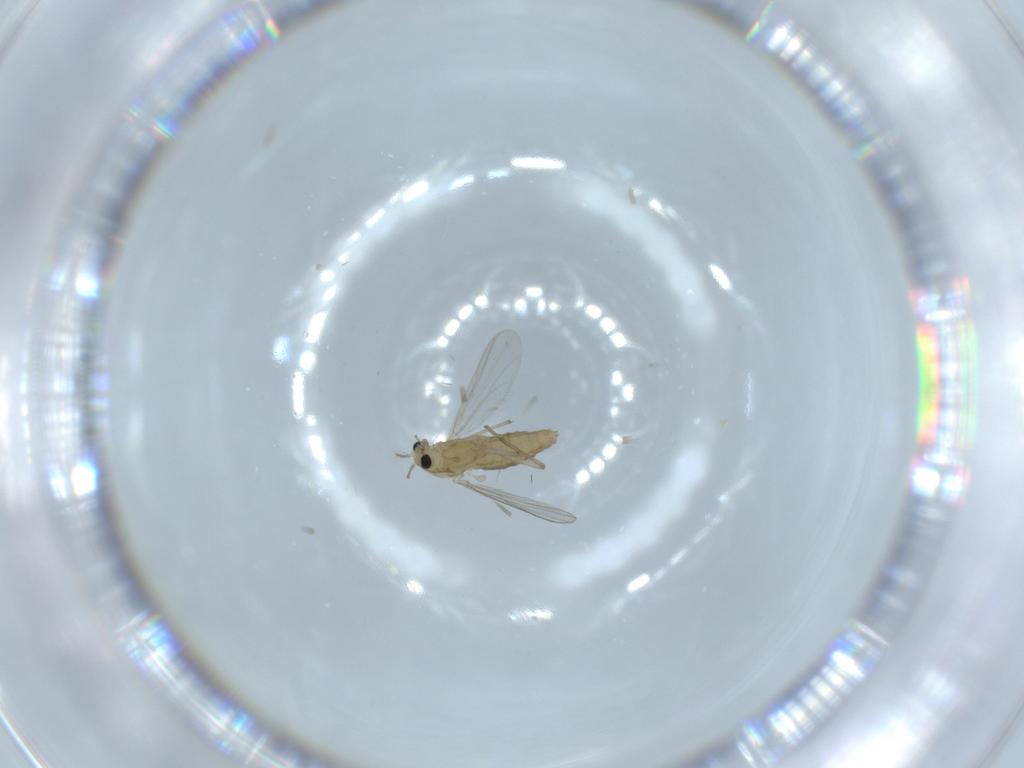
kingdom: Animalia
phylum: Arthropoda
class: Insecta
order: Diptera
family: Chironomidae
